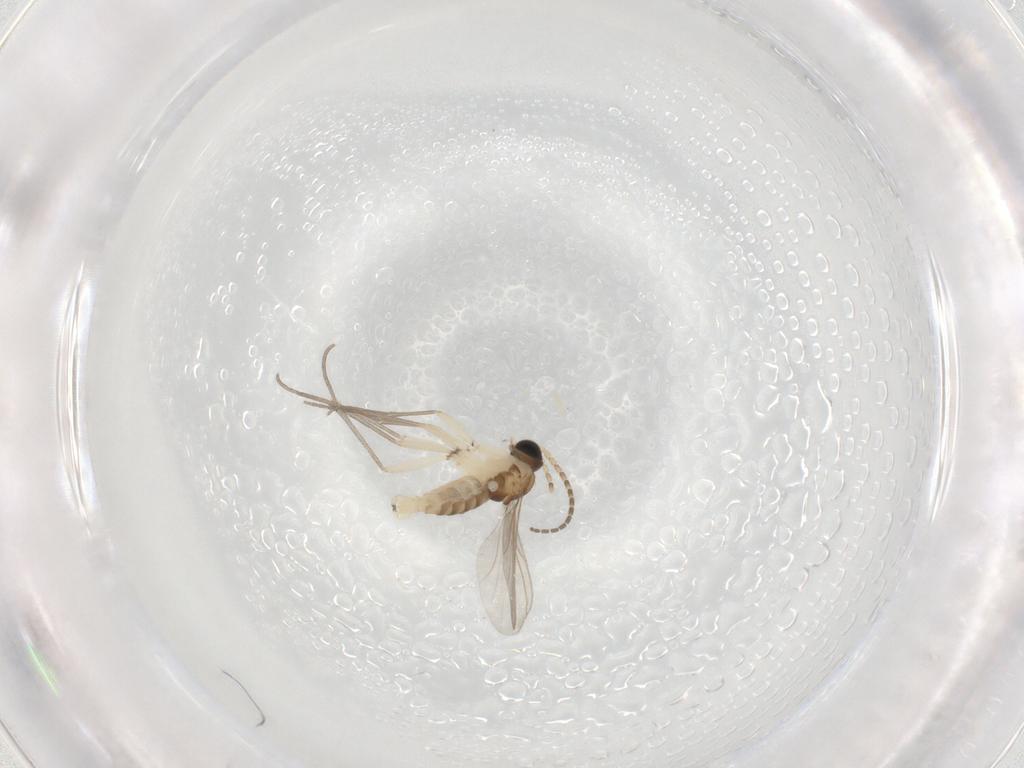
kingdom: Animalia
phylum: Arthropoda
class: Insecta
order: Diptera
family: Sciaridae
